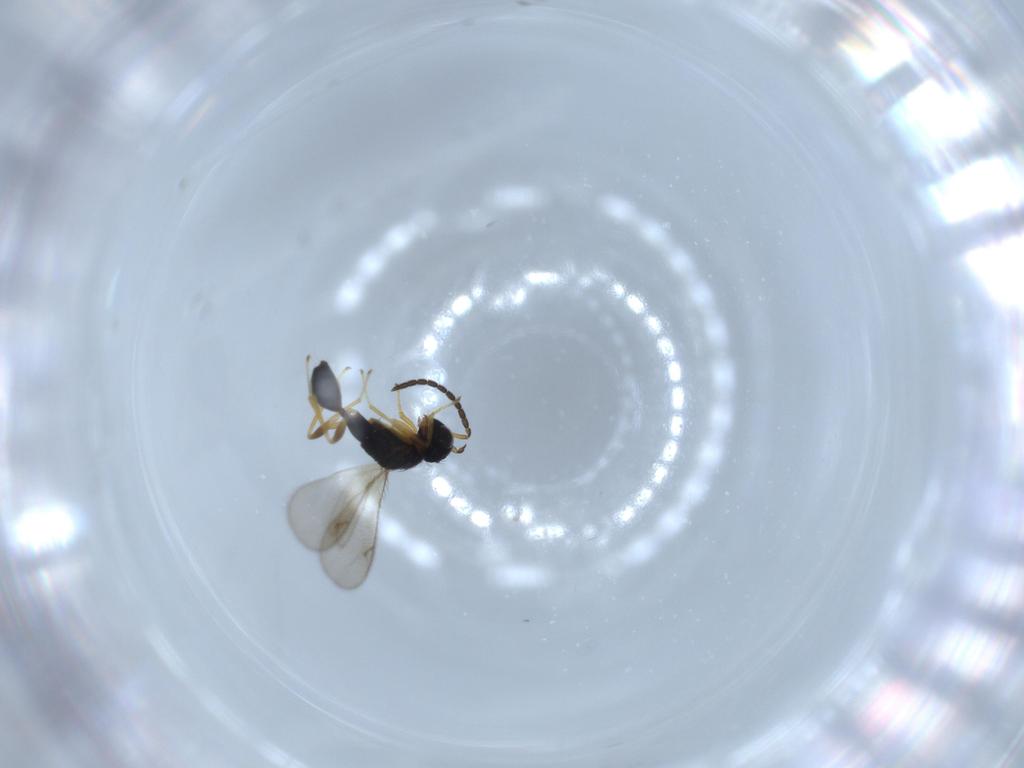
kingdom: Animalia
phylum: Arthropoda
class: Insecta
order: Hymenoptera
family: Diparidae
